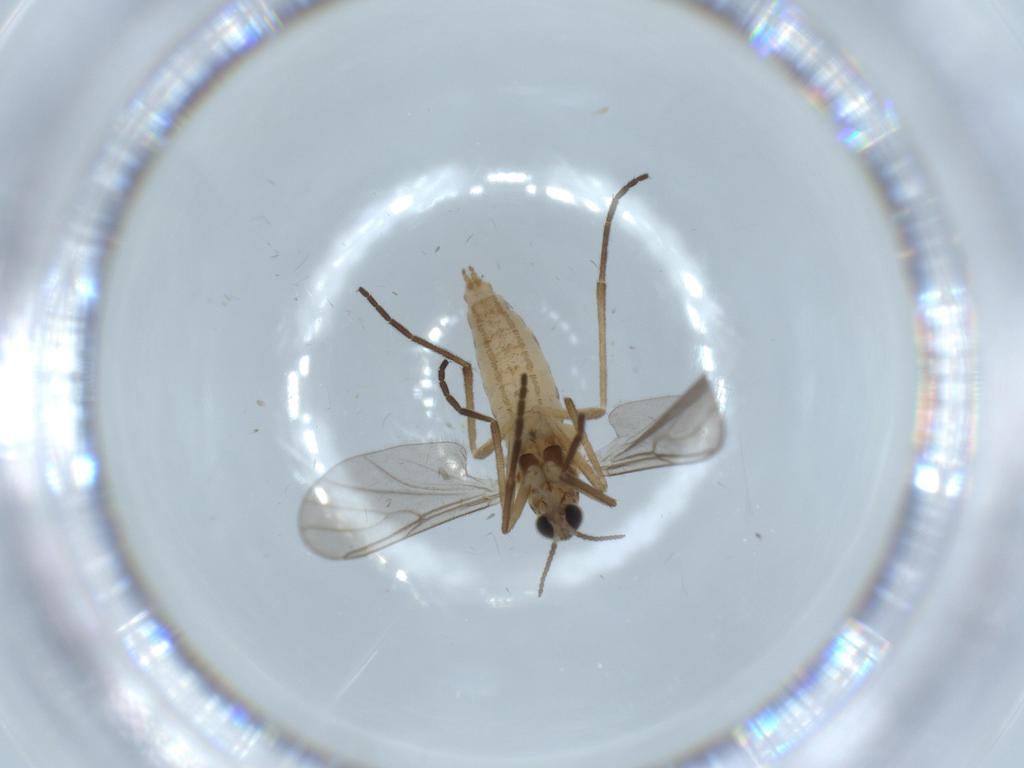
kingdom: Animalia
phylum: Arthropoda
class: Insecta
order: Diptera
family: Cecidomyiidae
